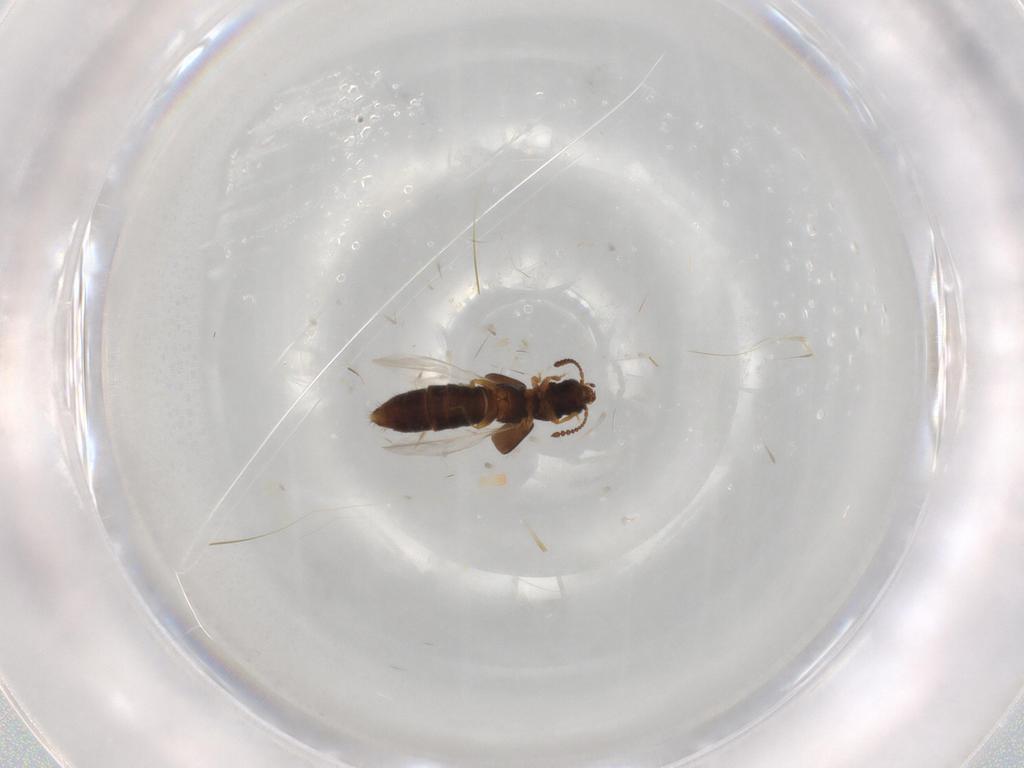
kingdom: Animalia
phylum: Arthropoda
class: Insecta
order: Coleoptera
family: Staphylinidae
